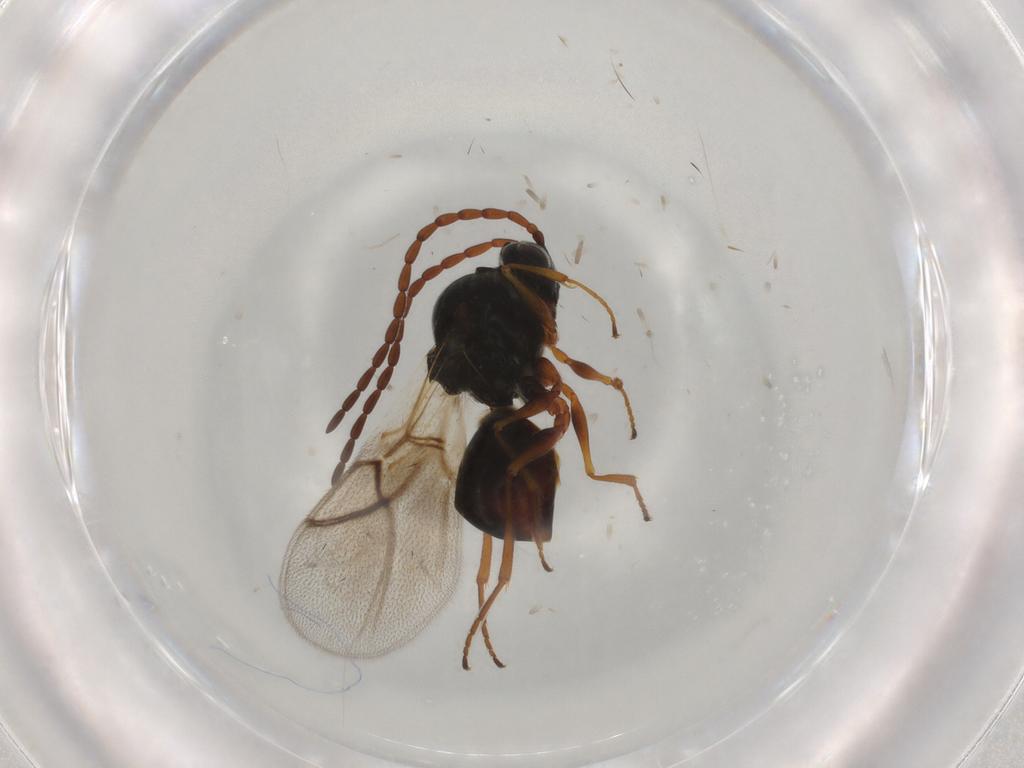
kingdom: Animalia
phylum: Arthropoda
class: Insecta
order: Hymenoptera
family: Figitidae
